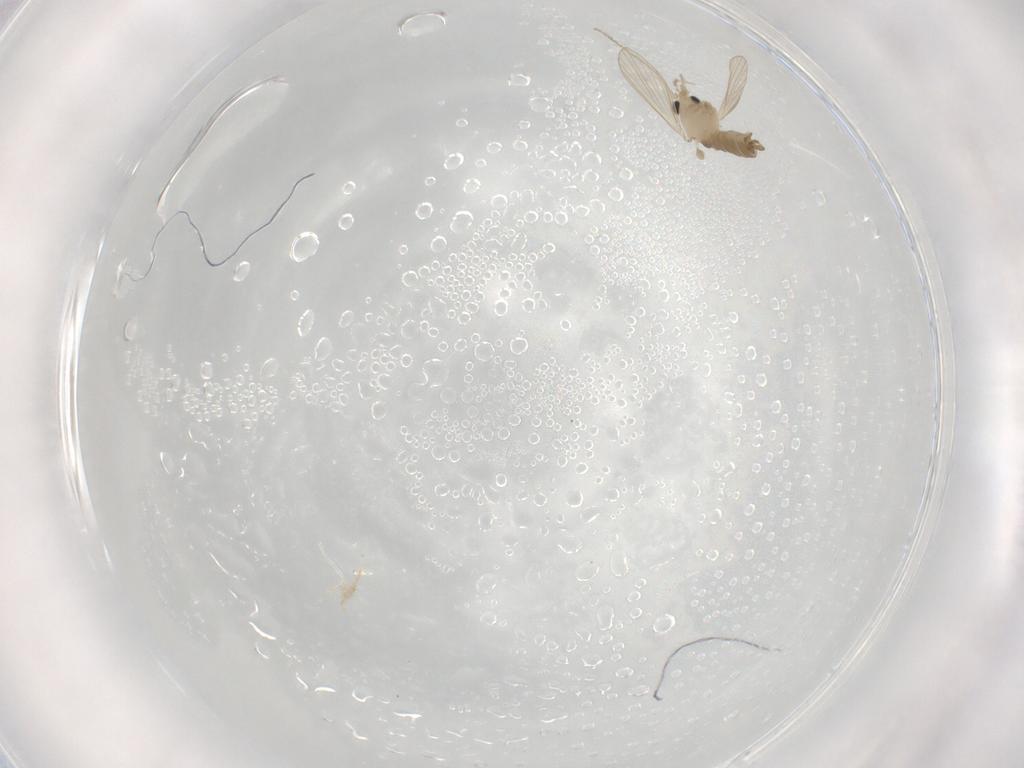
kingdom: Animalia
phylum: Arthropoda
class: Insecta
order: Diptera
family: Psychodidae
